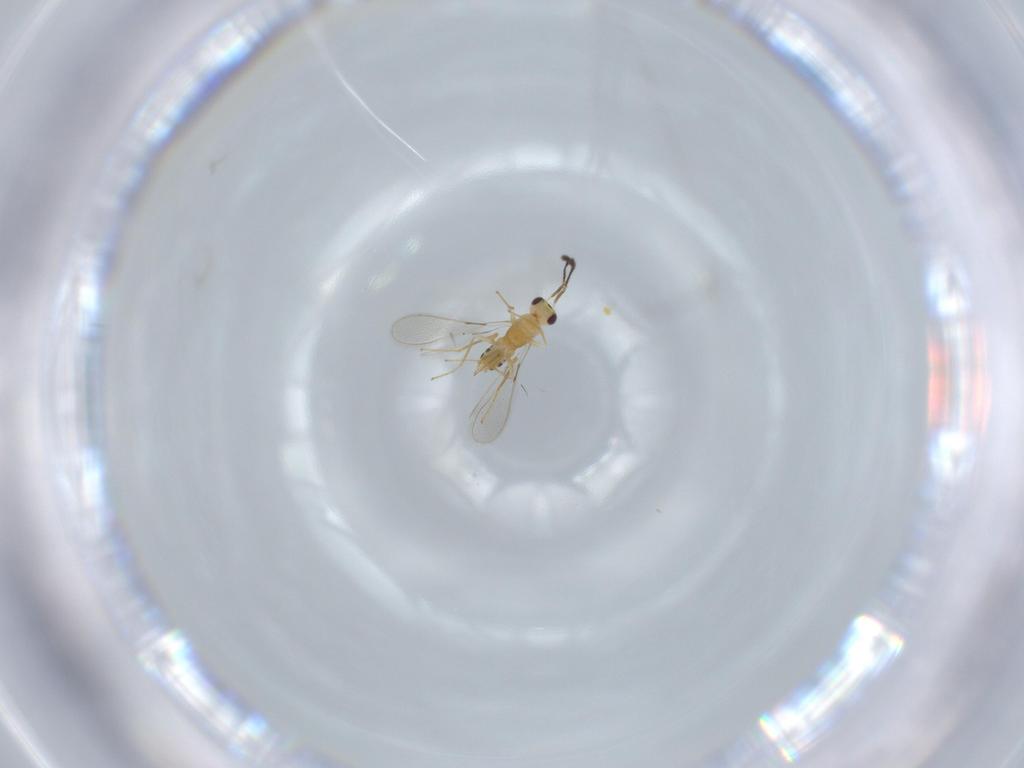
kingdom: Animalia
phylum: Arthropoda
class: Insecta
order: Hymenoptera
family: Mymaridae
